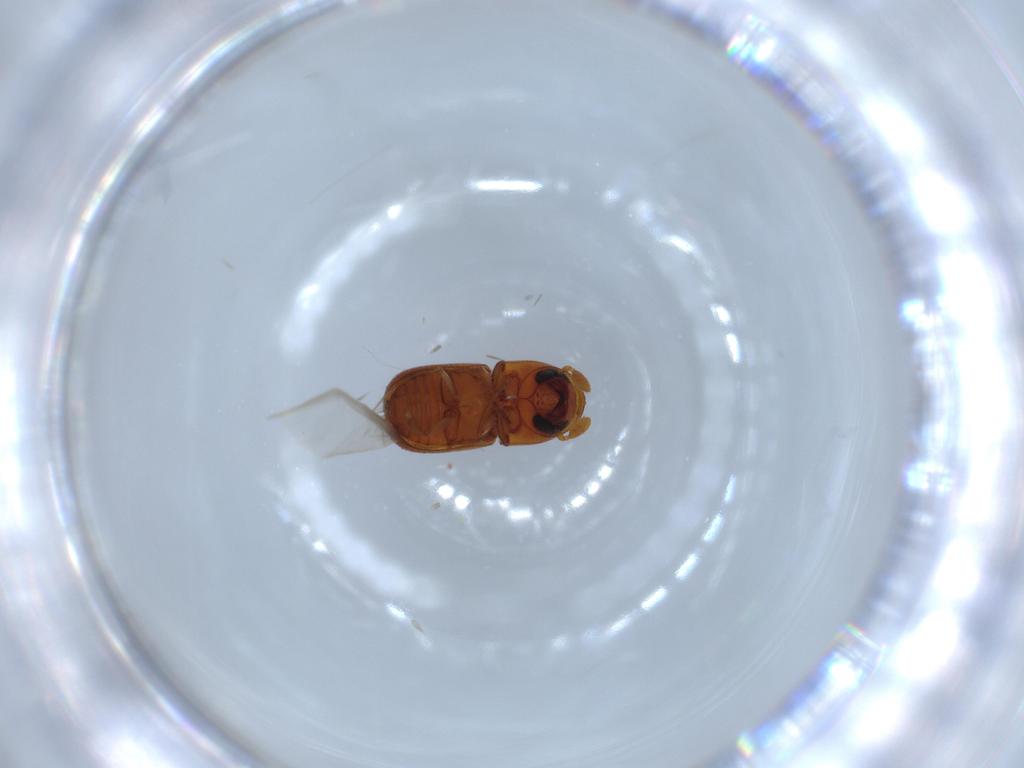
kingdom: Animalia
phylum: Arthropoda
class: Insecta
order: Coleoptera
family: Curculionidae
